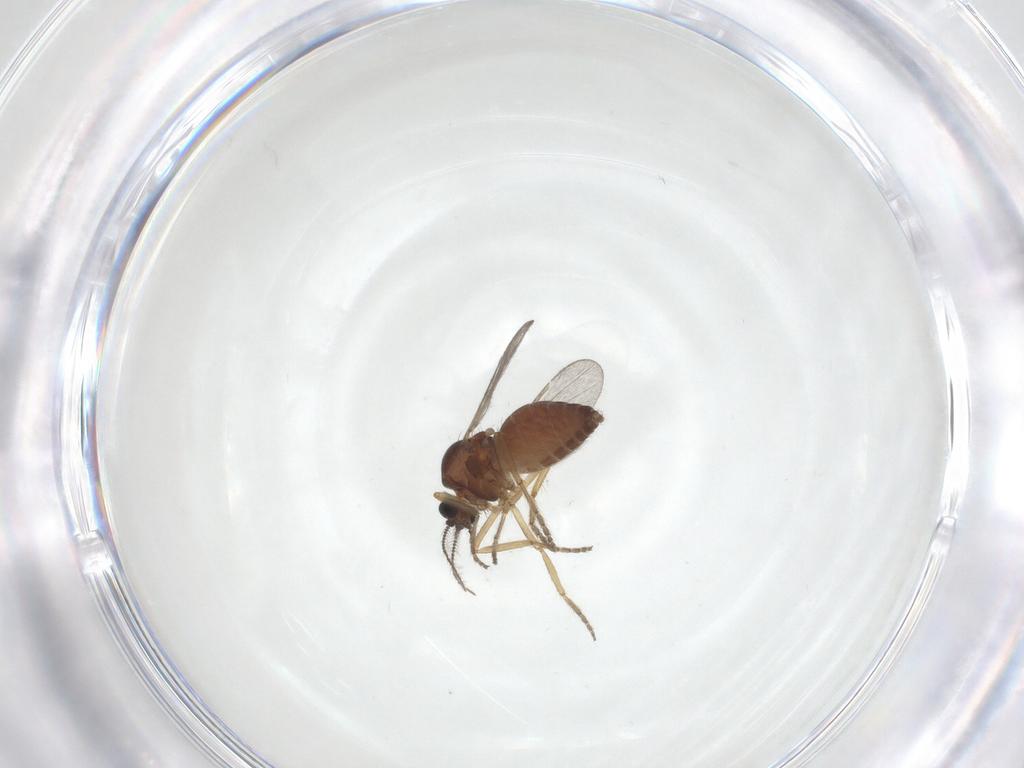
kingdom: Animalia
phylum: Arthropoda
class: Insecta
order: Diptera
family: Ceratopogonidae
